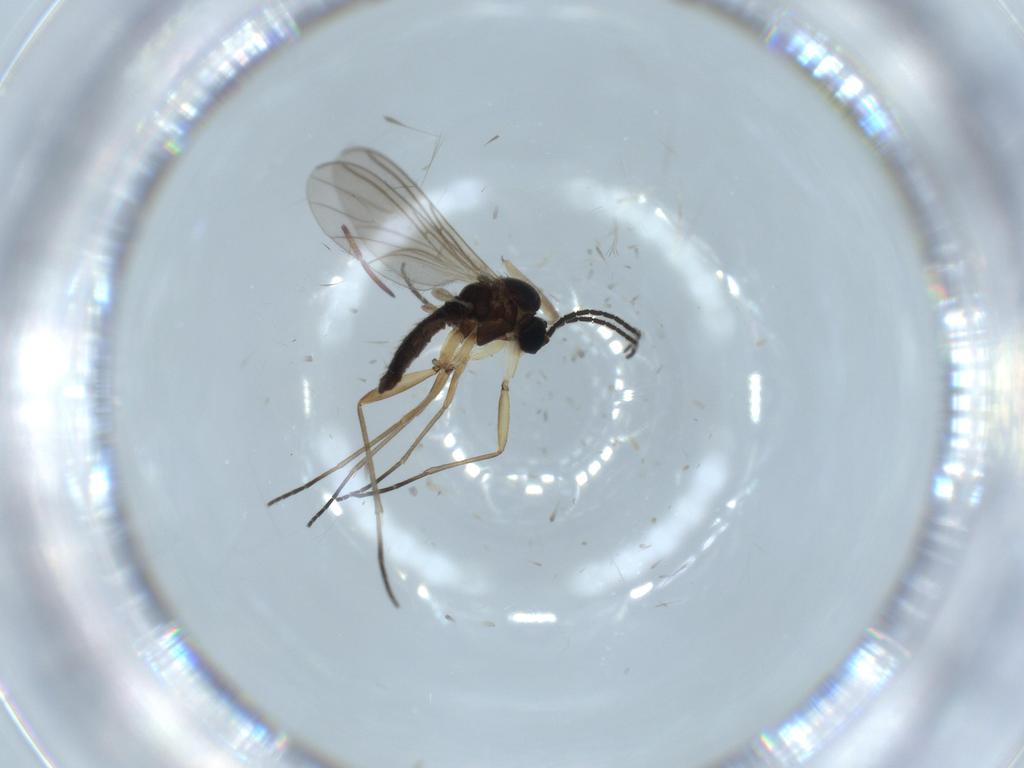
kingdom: Animalia
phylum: Arthropoda
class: Insecta
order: Diptera
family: Sciaridae
